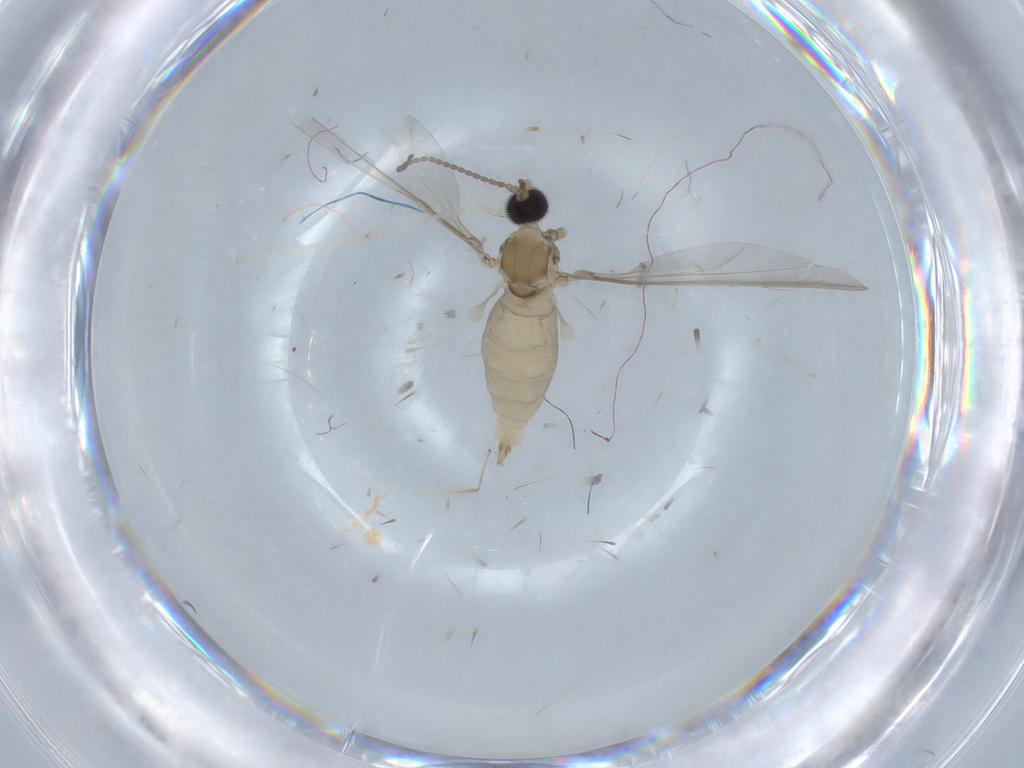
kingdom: Animalia
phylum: Arthropoda
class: Insecta
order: Diptera
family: Cecidomyiidae
